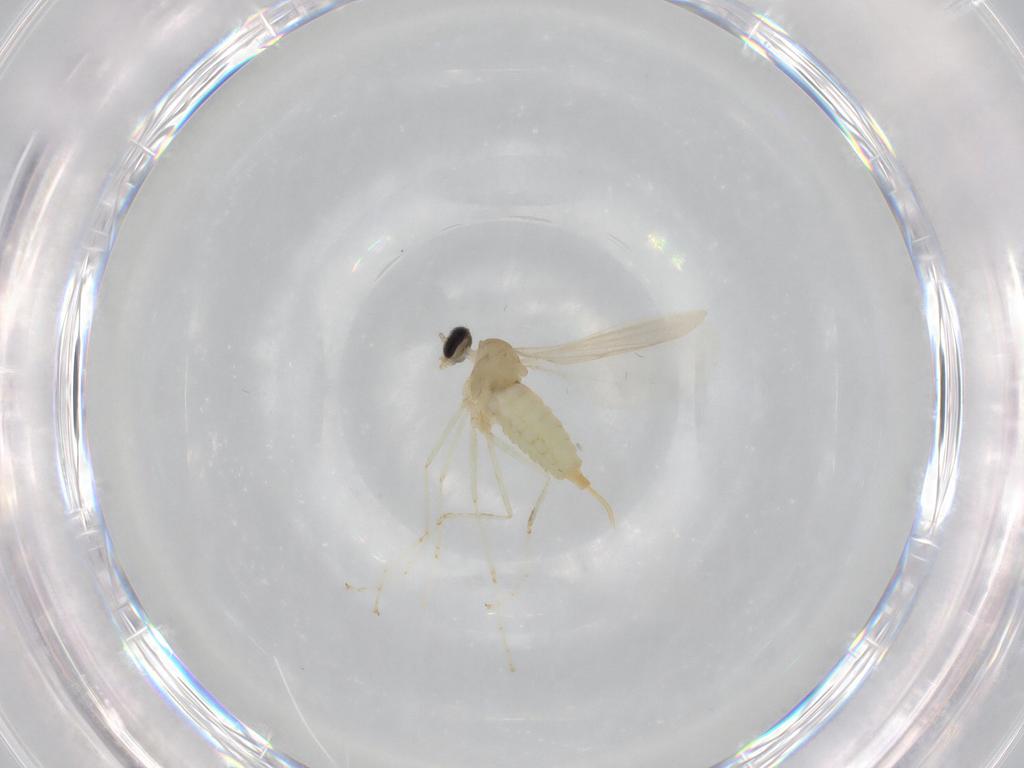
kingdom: Animalia
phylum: Arthropoda
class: Insecta
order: Diptera
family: Cecidomyiidae
